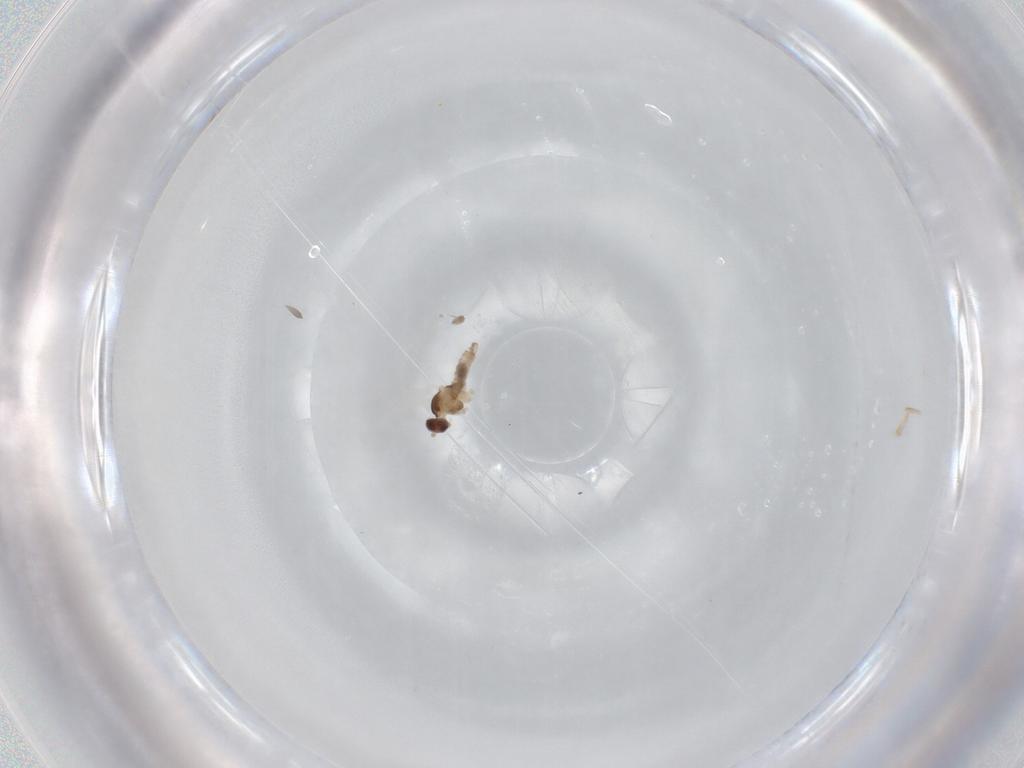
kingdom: Animalia
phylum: Arthropoda
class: Insecta
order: Diptera
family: Cecidomyiidae
